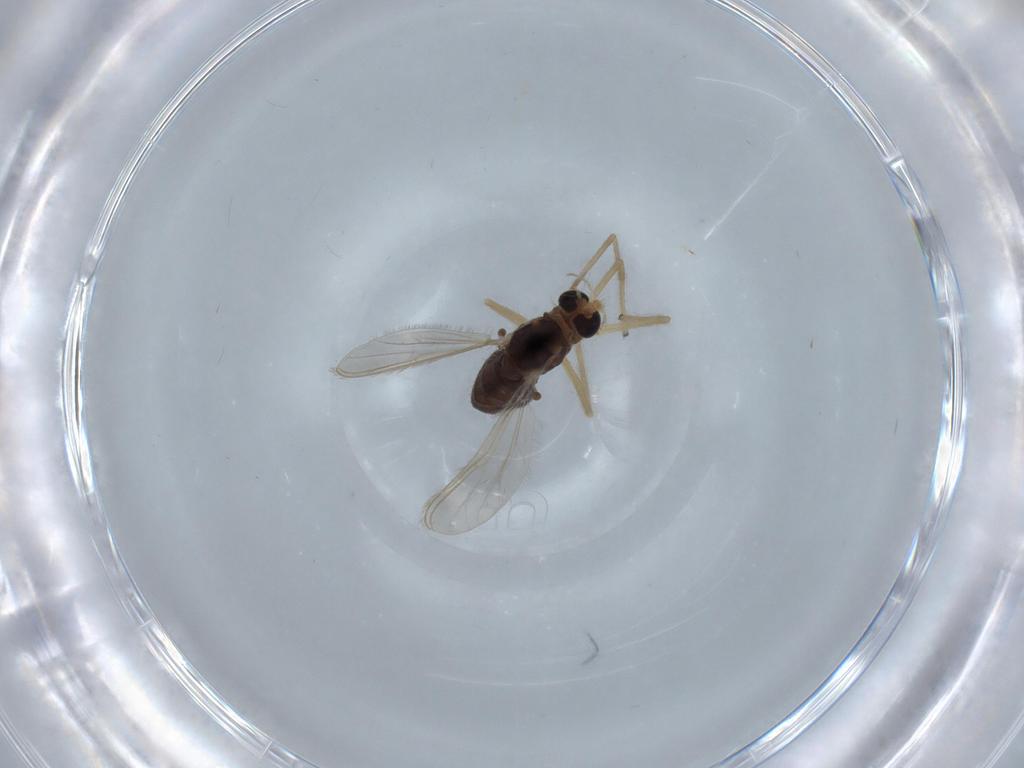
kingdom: Animalia
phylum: Arthropoda
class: Insecta
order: Diptera
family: Chironomidae
